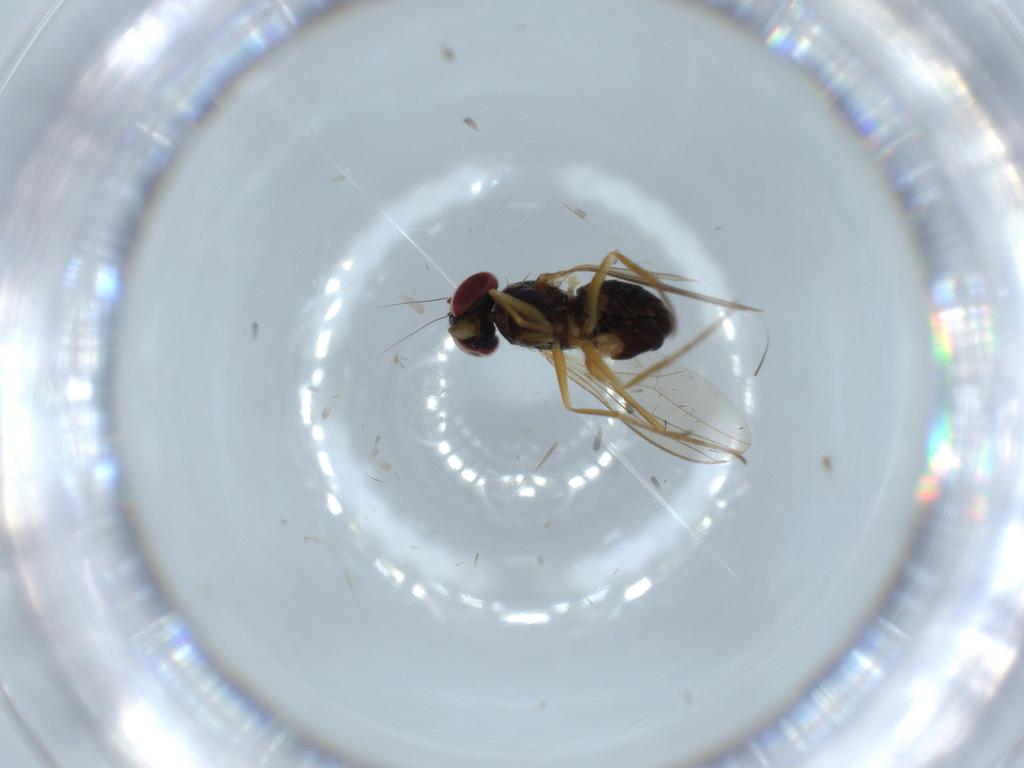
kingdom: Animalia
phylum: Arthropoda
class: Insecta
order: Diptera
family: Dolichopodidae
